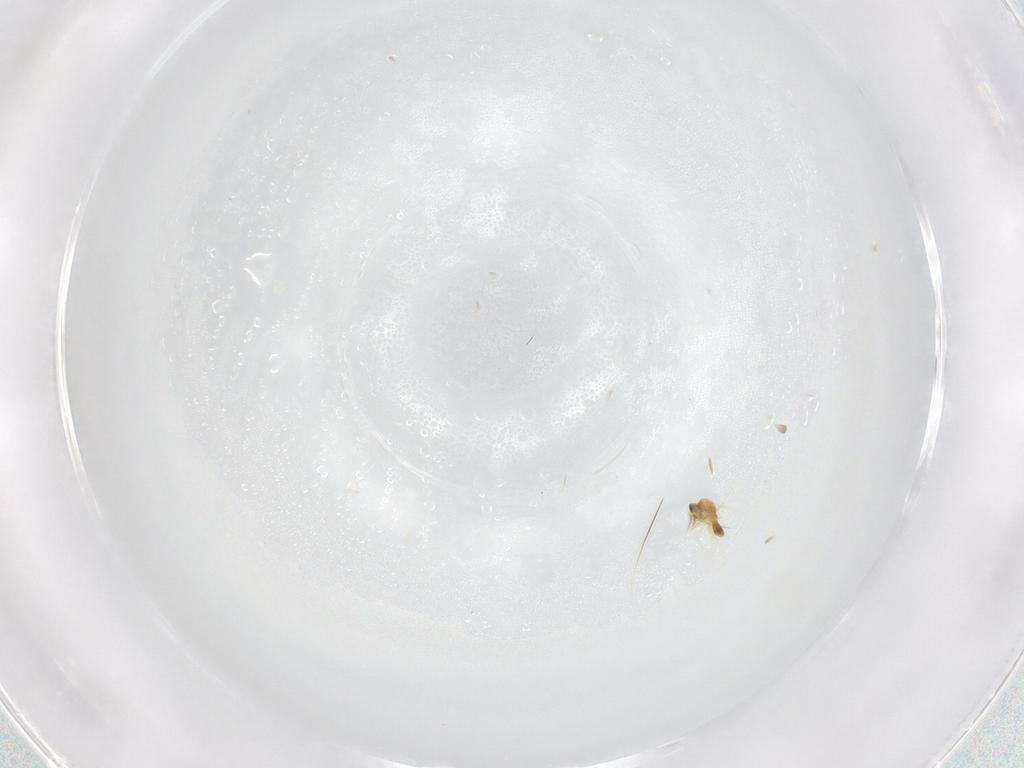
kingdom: Animalia
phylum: Arthropoda
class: Insecta
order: Hymenoptera
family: Eulophidae
